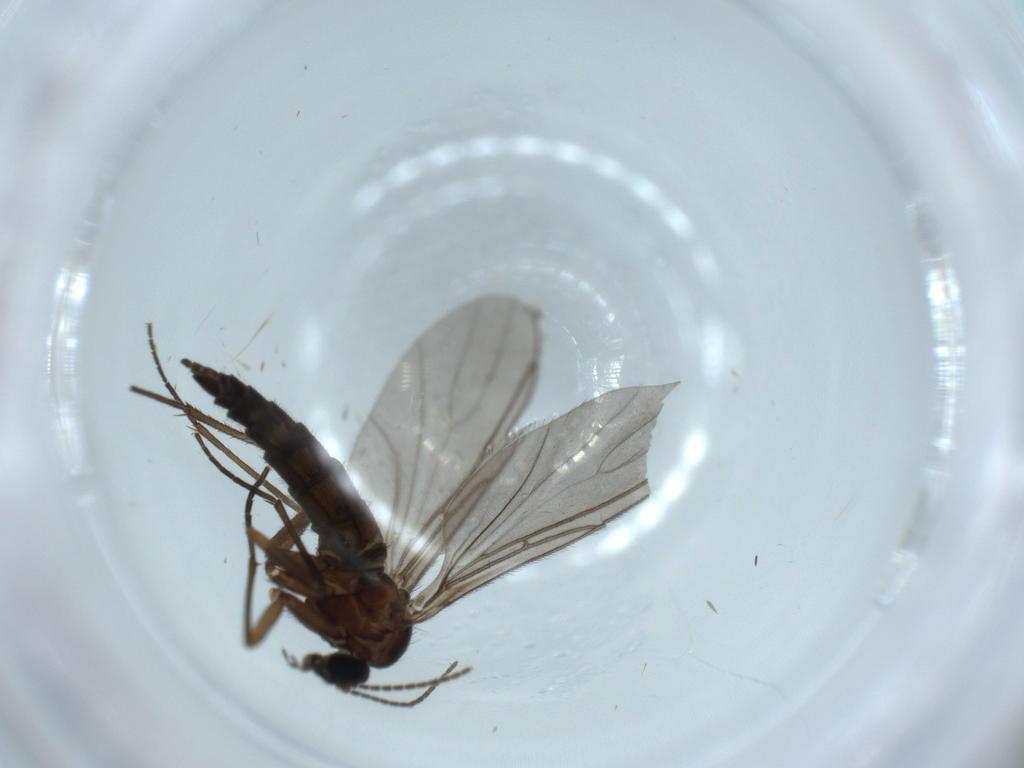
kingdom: Animalia
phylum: Arthropoda
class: Insecta
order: Diptera
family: Sciaridae
